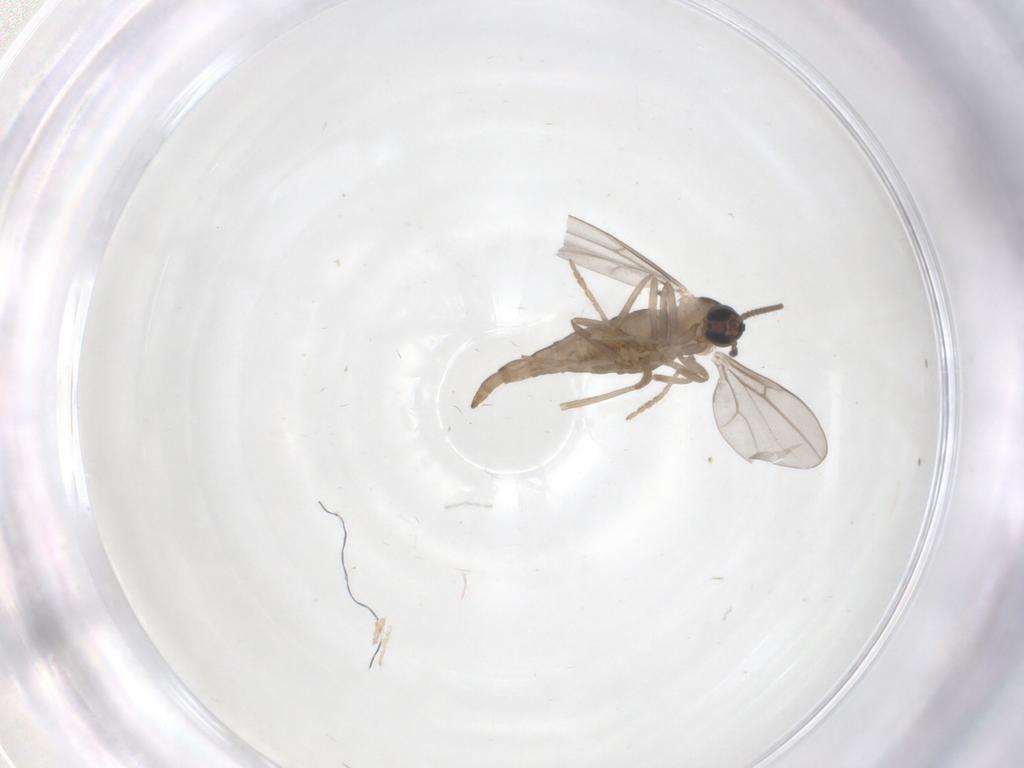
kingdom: Animalia
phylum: Arthropoda
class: Insecta
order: Diptera
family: Cecidomyiidae
